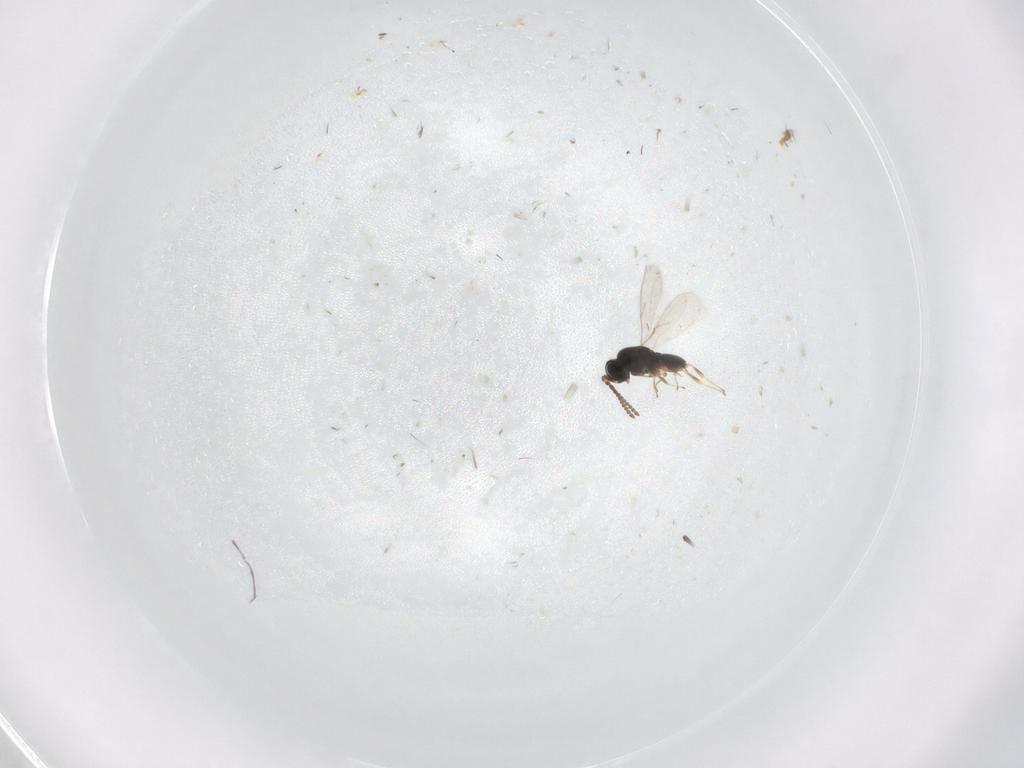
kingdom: Animalia
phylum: Arthropoda
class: Insecta
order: Hymenoptera
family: Scelionidae
